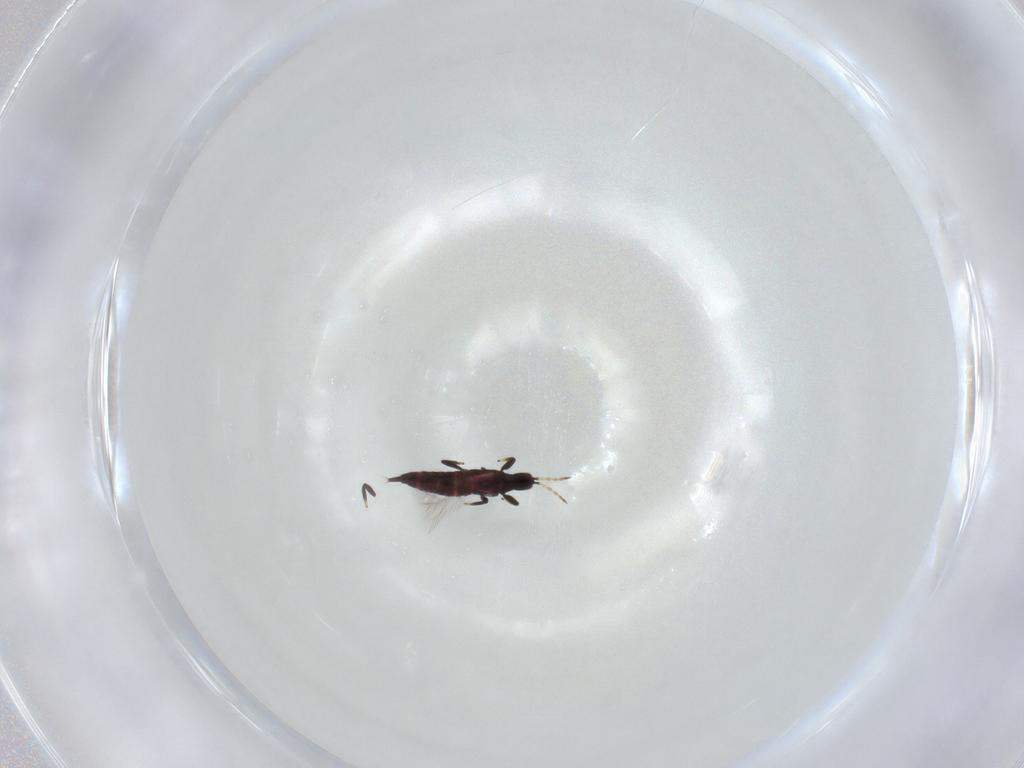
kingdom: Animalia
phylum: Arthropoda
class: Insecta
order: Thysanoptera
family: Phlaeothripidae
